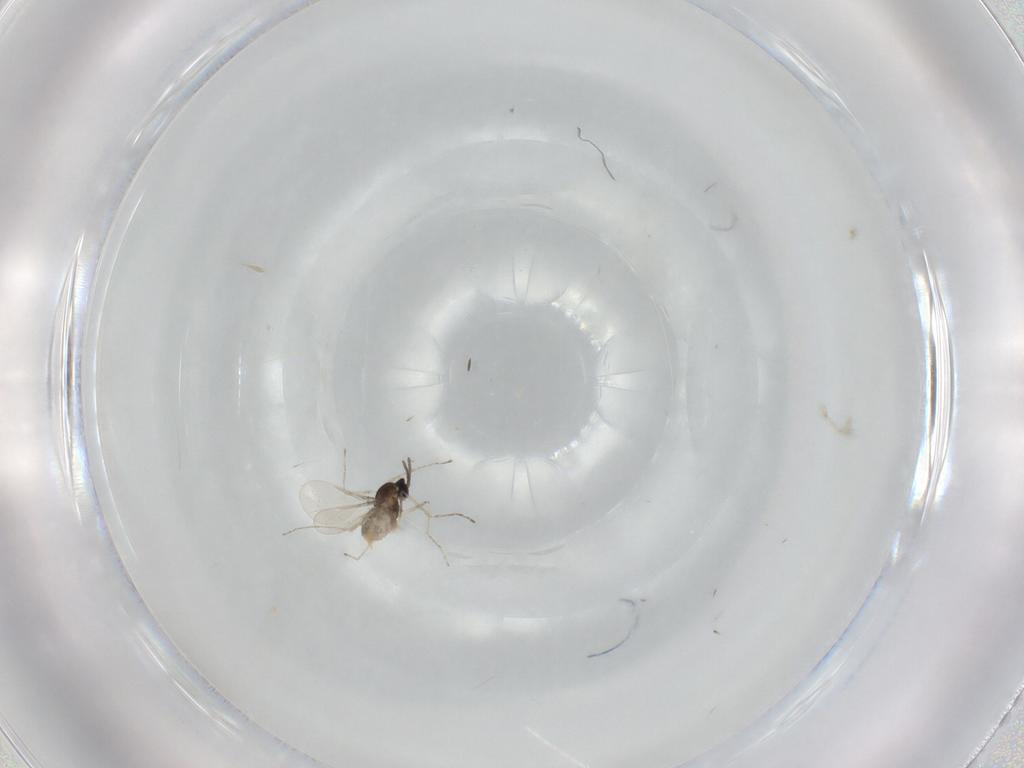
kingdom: Animalia
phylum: Arthropoda
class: Insecta
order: Diptera
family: Cecidomyiidae
